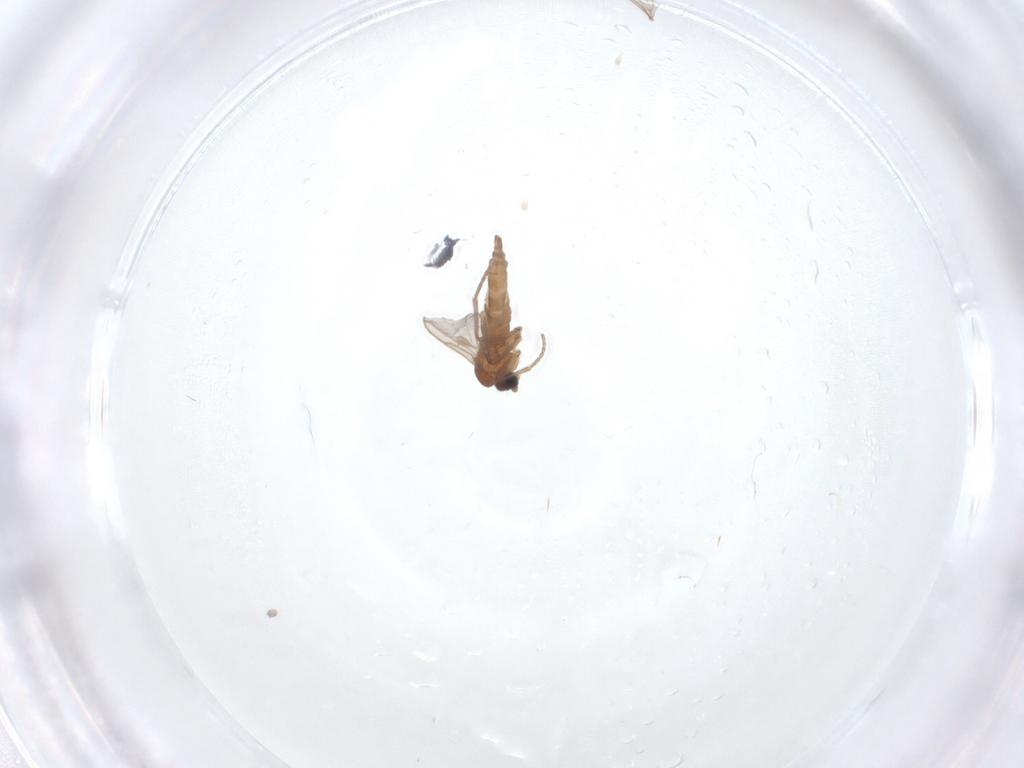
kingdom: Animalia
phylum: Arthropoda
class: Insecta
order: Diptera
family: Sciaridae
